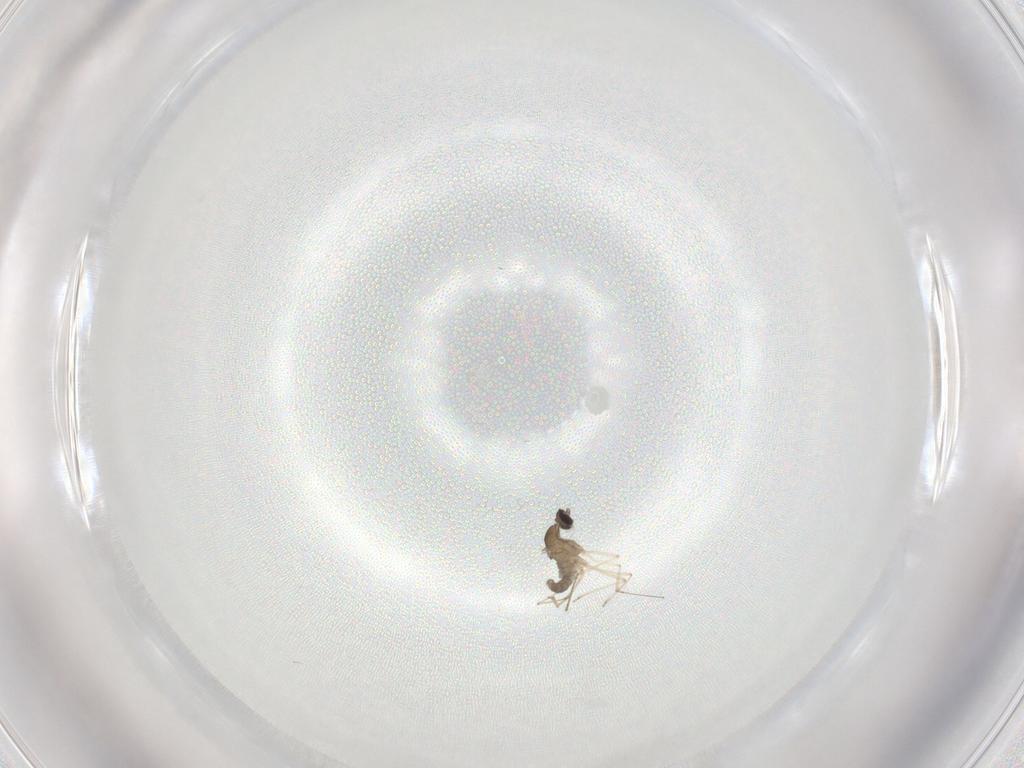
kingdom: Animalia
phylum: Arthropoda
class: Insecta
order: Diptera
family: Cecidomyiidae
